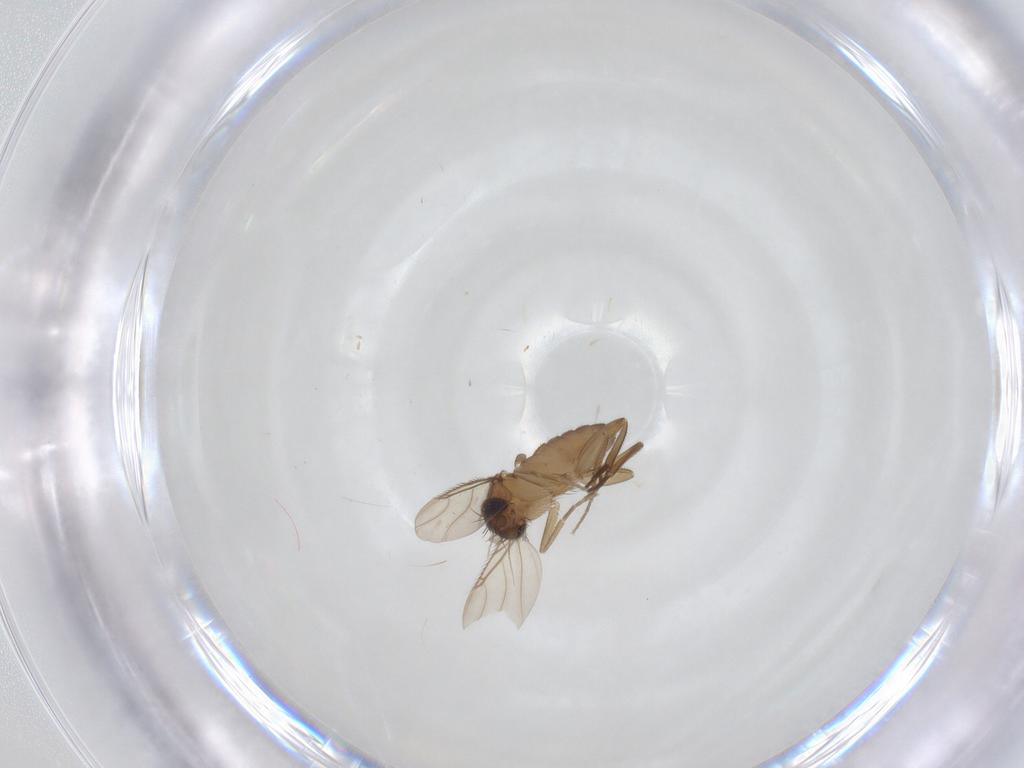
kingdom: Animalia
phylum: Arthropoda
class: Insecta
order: Diptera
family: Phoridae
